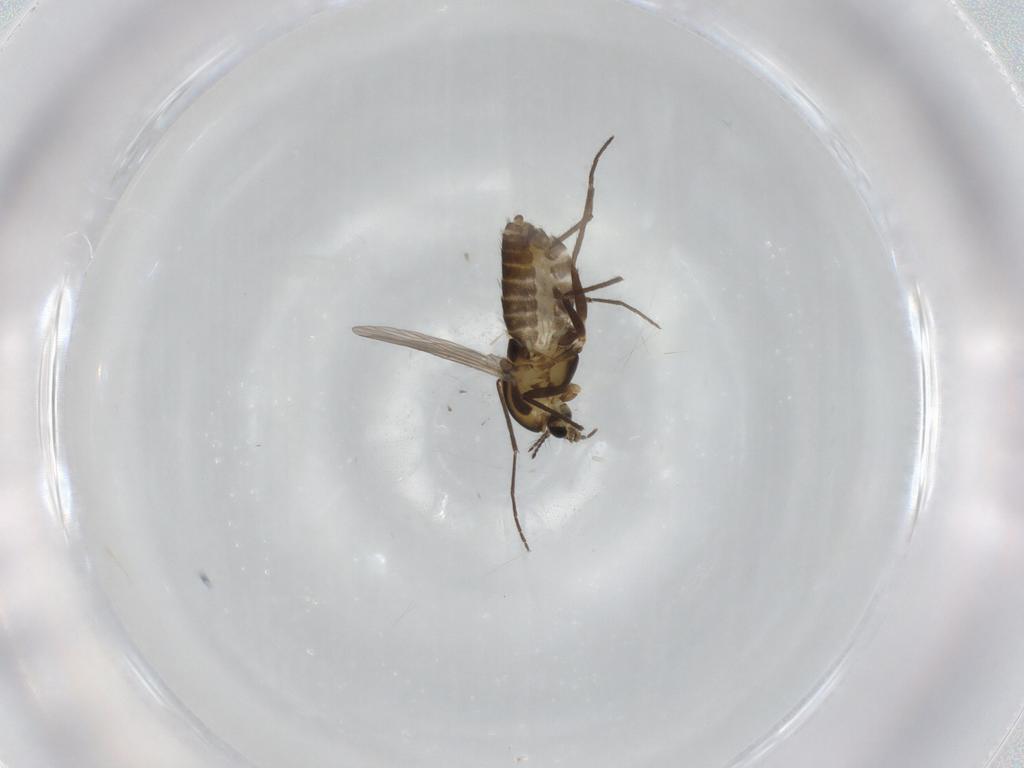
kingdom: Animalia
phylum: Arthropoda
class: Insecta
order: Diptera
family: Chironomidae
